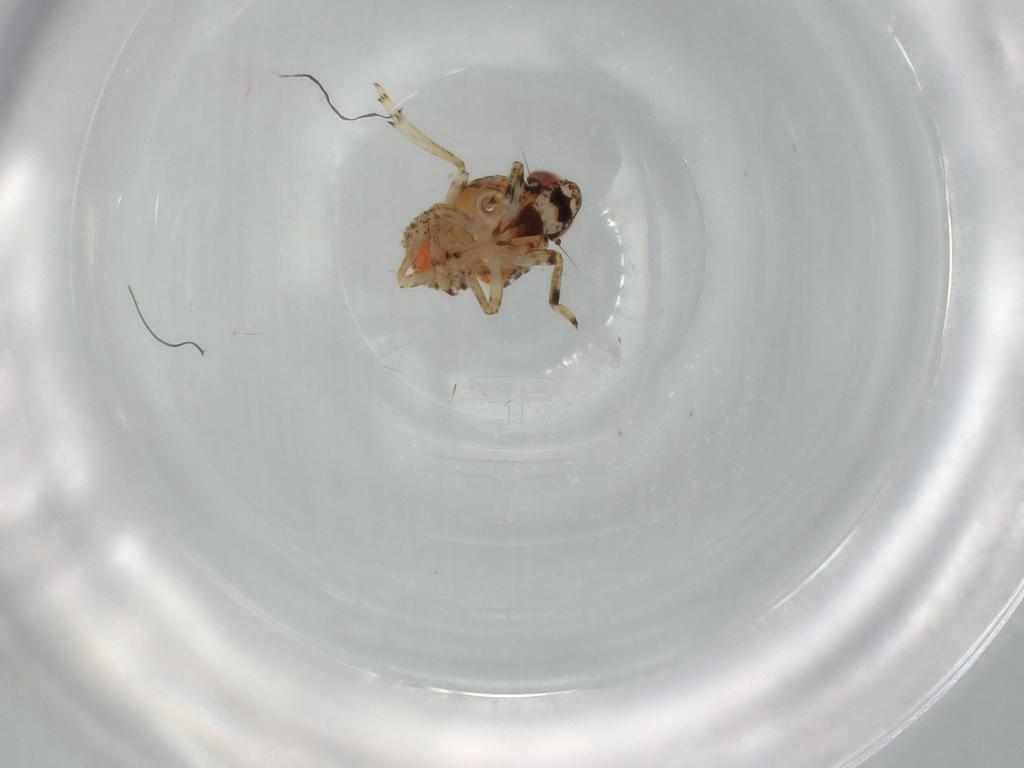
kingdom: Animalia
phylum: Arthropoda
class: Insecta
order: Hemiptera
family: Issidae
